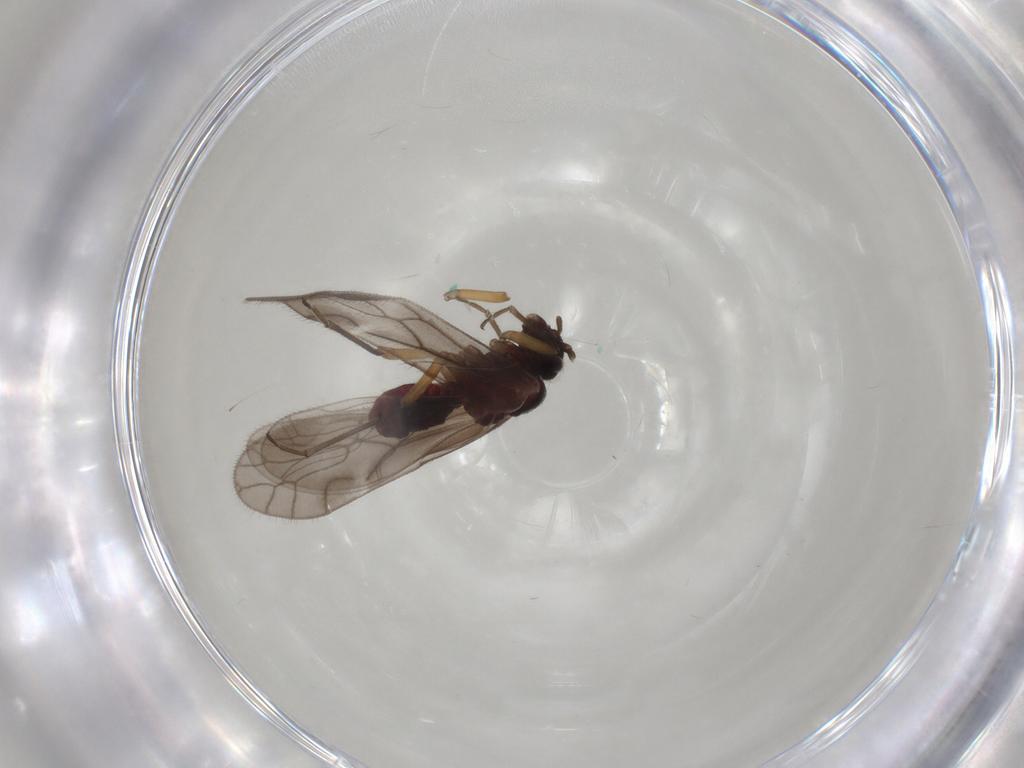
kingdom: Animalia
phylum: Arthropoda
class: Insecta
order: Psocodea
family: Trichopsocidae
